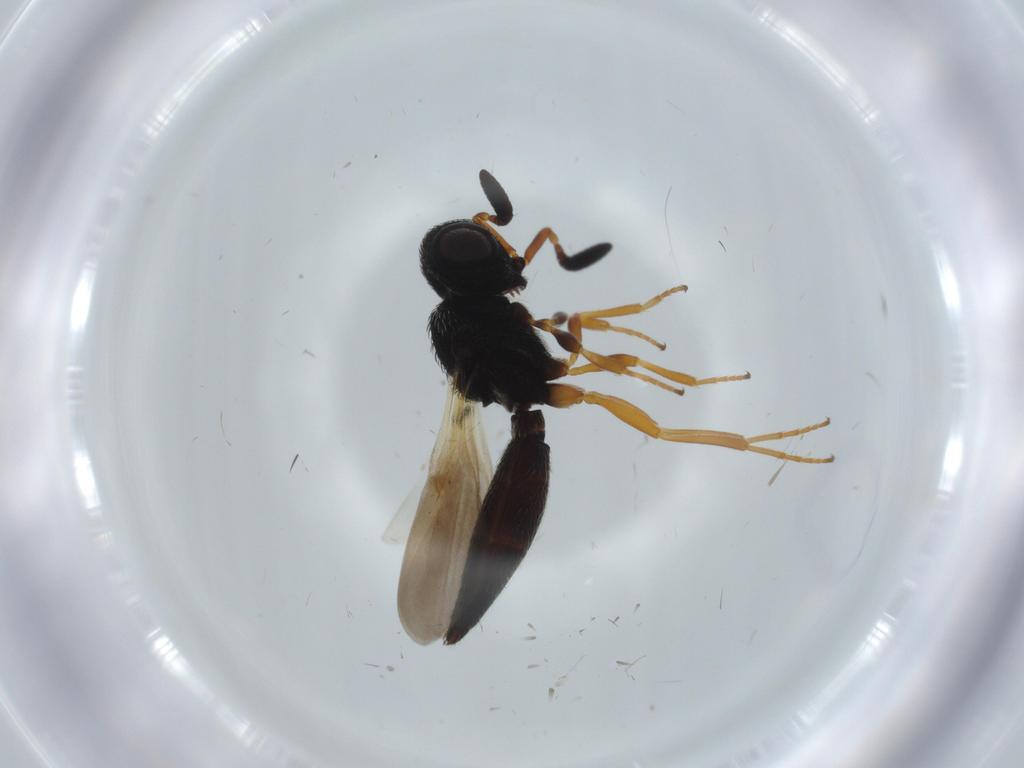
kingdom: Animalia
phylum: Arthropoda
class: Insecta
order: Hymenoptera
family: Scelionidae
